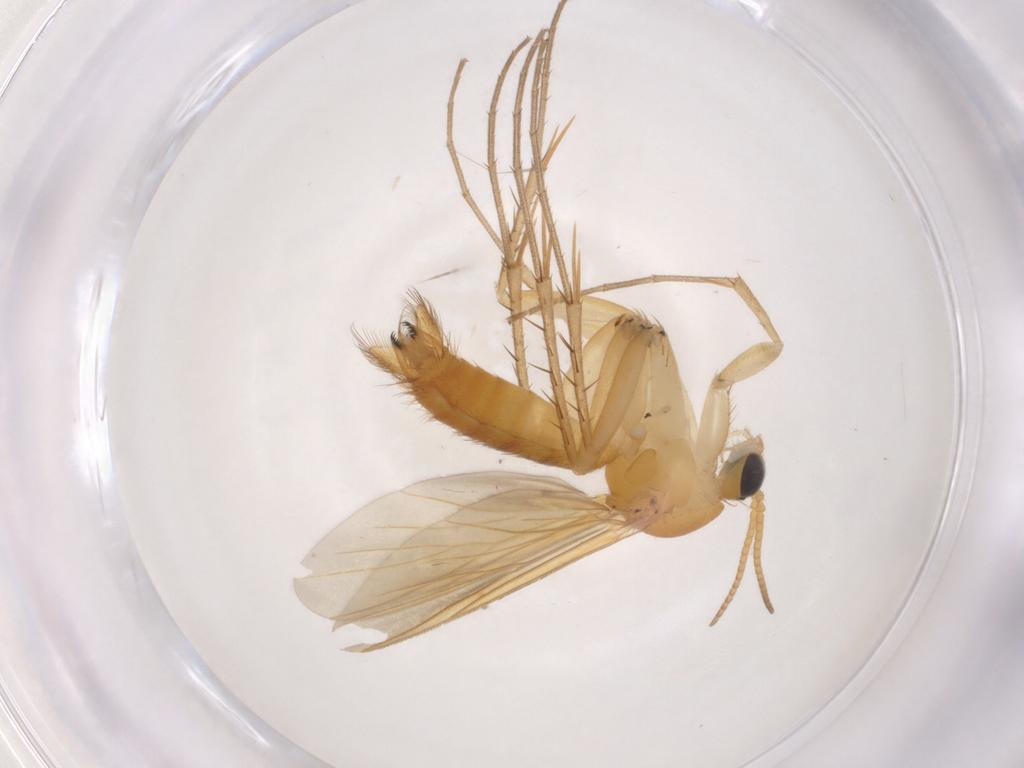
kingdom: Animalia
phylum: Arthropoda
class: Insecta
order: Diptera
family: Mycetophilidae
